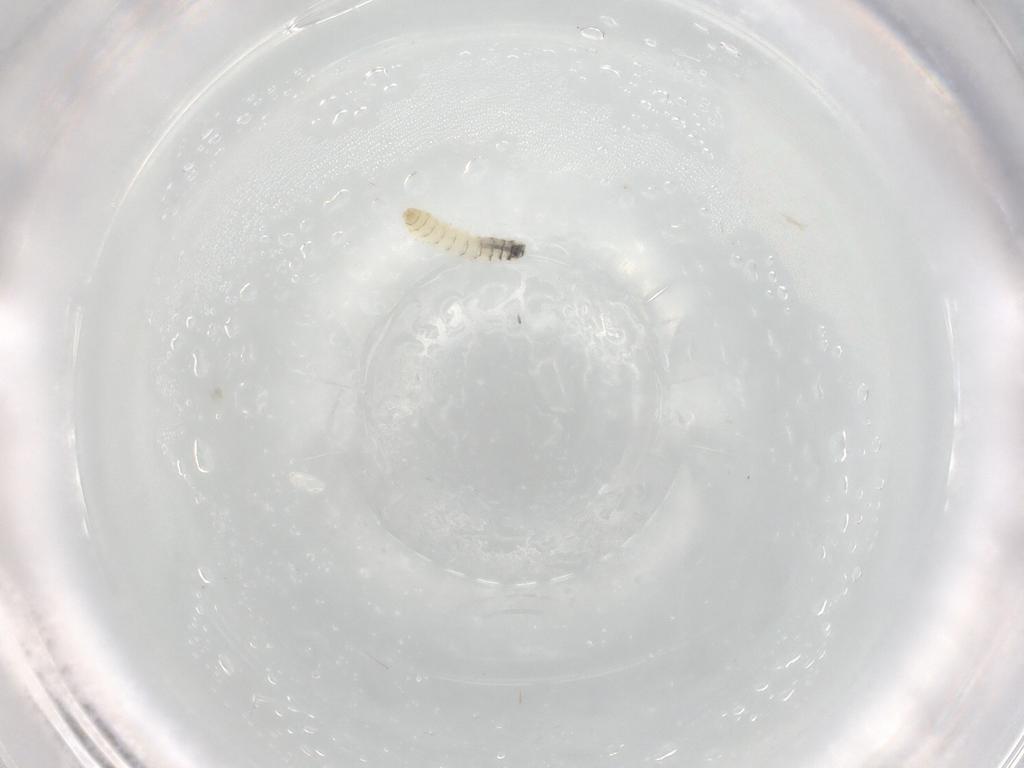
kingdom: Animalia
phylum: Arthropoda
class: Insecta
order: Diptera
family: Sarcophagidae
